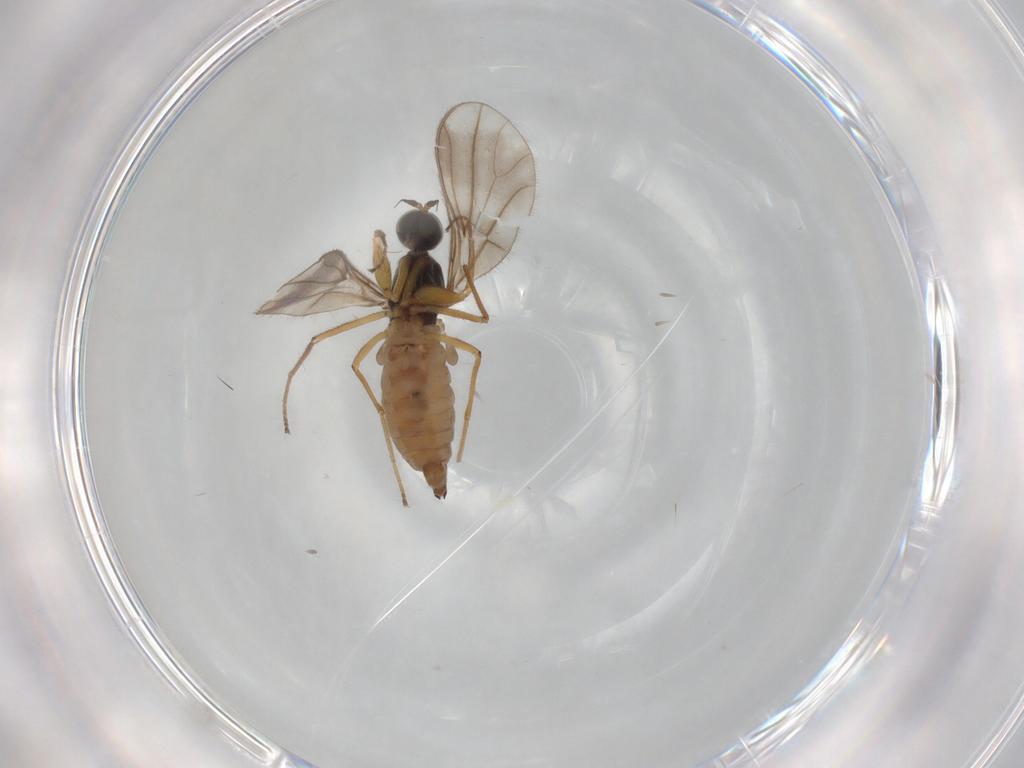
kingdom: Animalia
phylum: Arthropoda
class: Insecta
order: Diptera
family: Empididae
